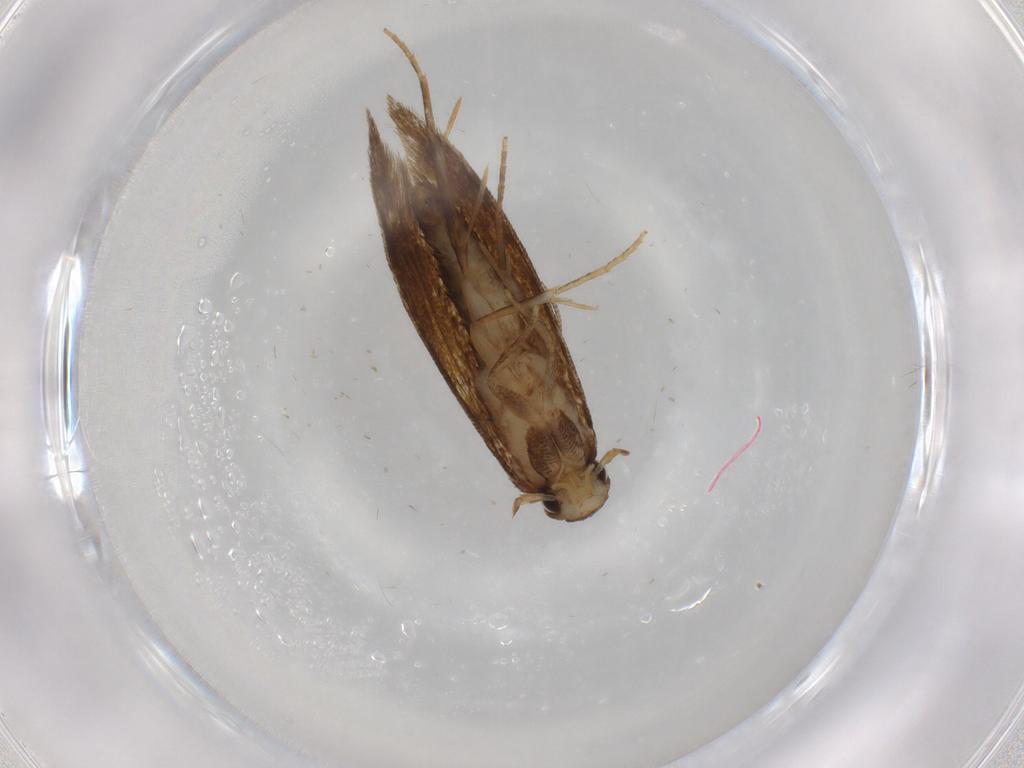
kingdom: Animalia
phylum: Arthropoda
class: Insecta
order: Lepidoptera
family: Tineidae
